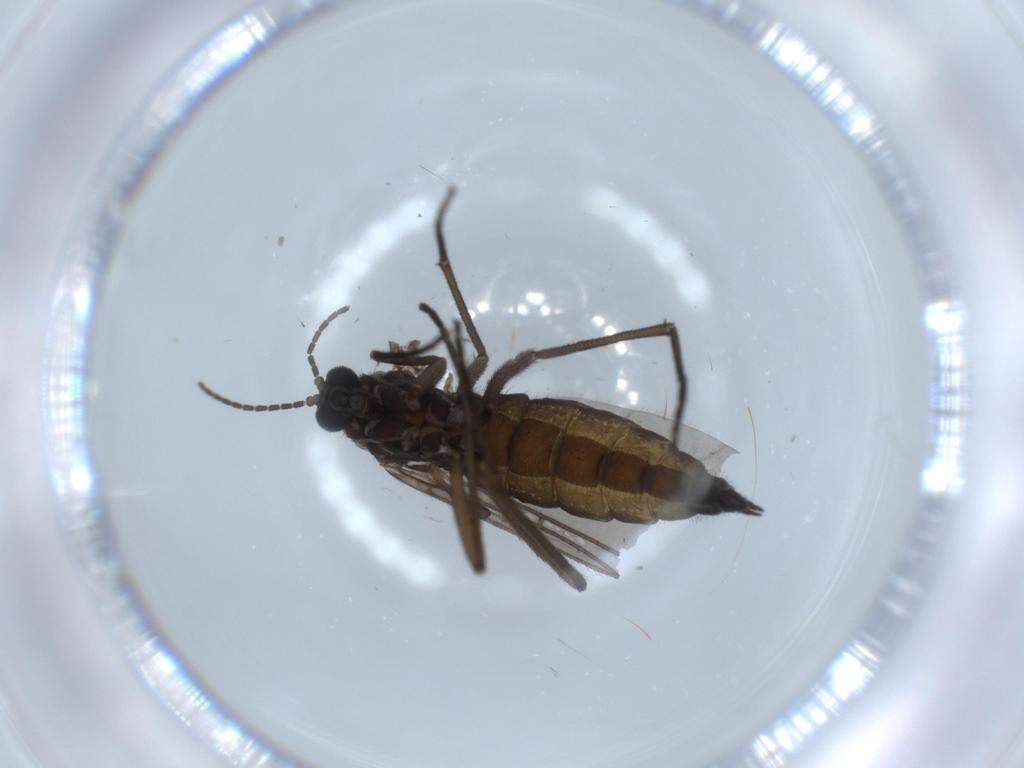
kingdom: Animalia
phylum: Arthropoda
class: Insecta
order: Diptera
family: Sciaridae
